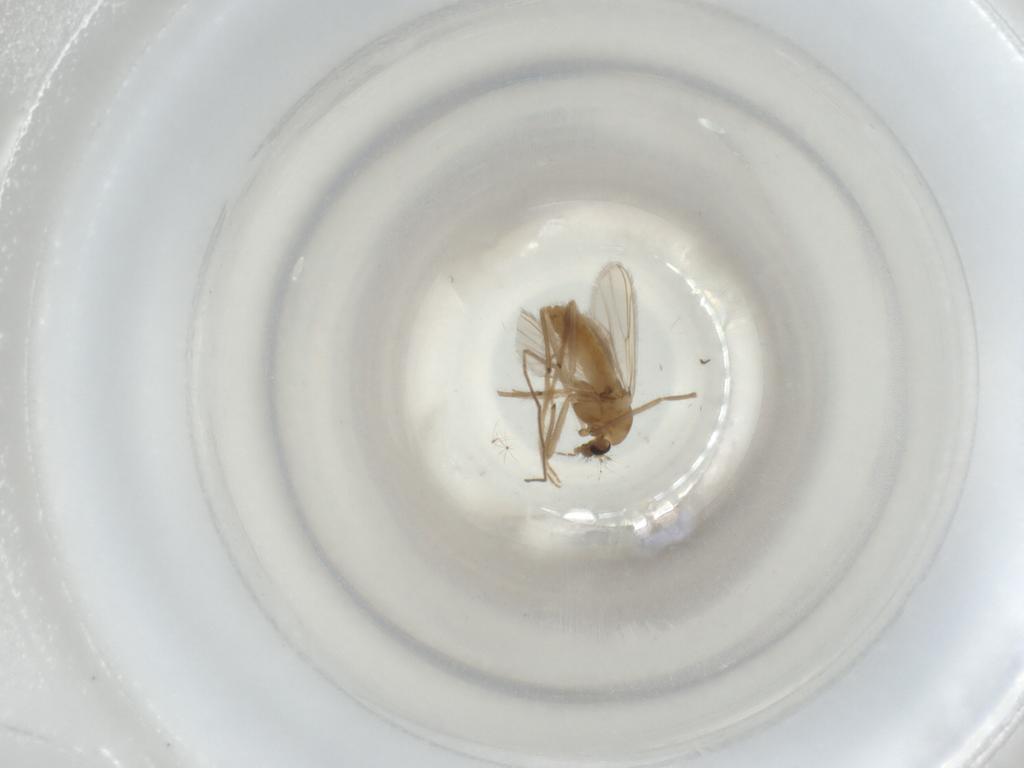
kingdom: Animalia
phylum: Arthropoda
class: Insecta
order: Diptera
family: Chironomidae
